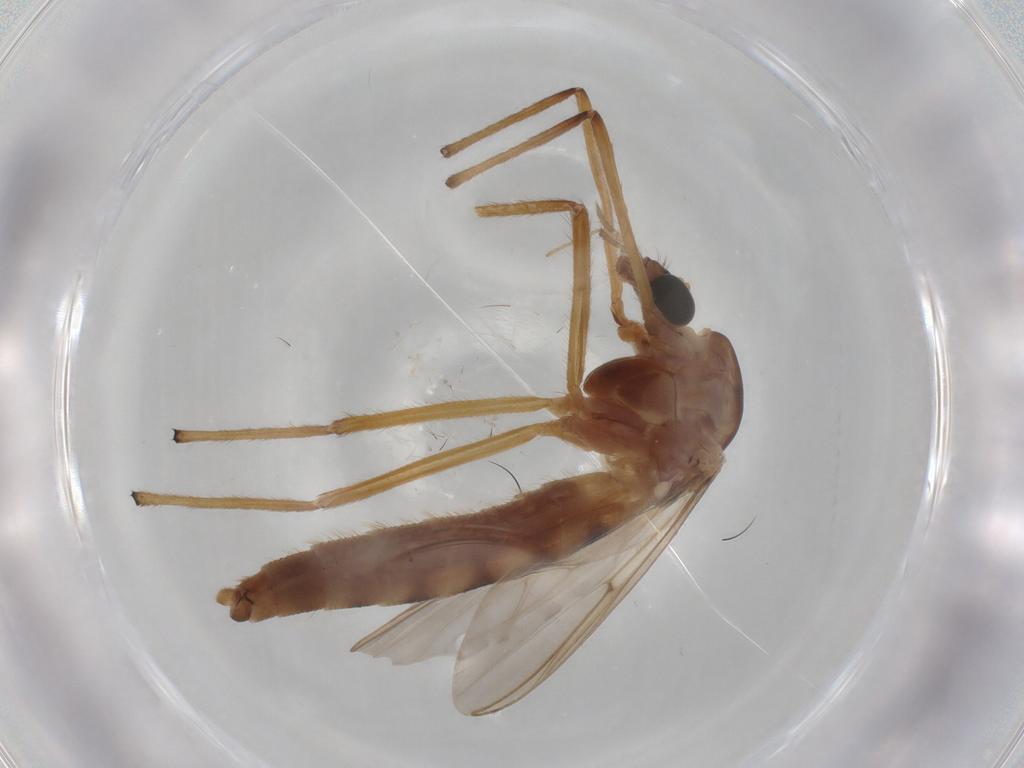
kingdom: Animalia
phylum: Arthropoda
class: Insecta
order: Diptera
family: Chironomidae
